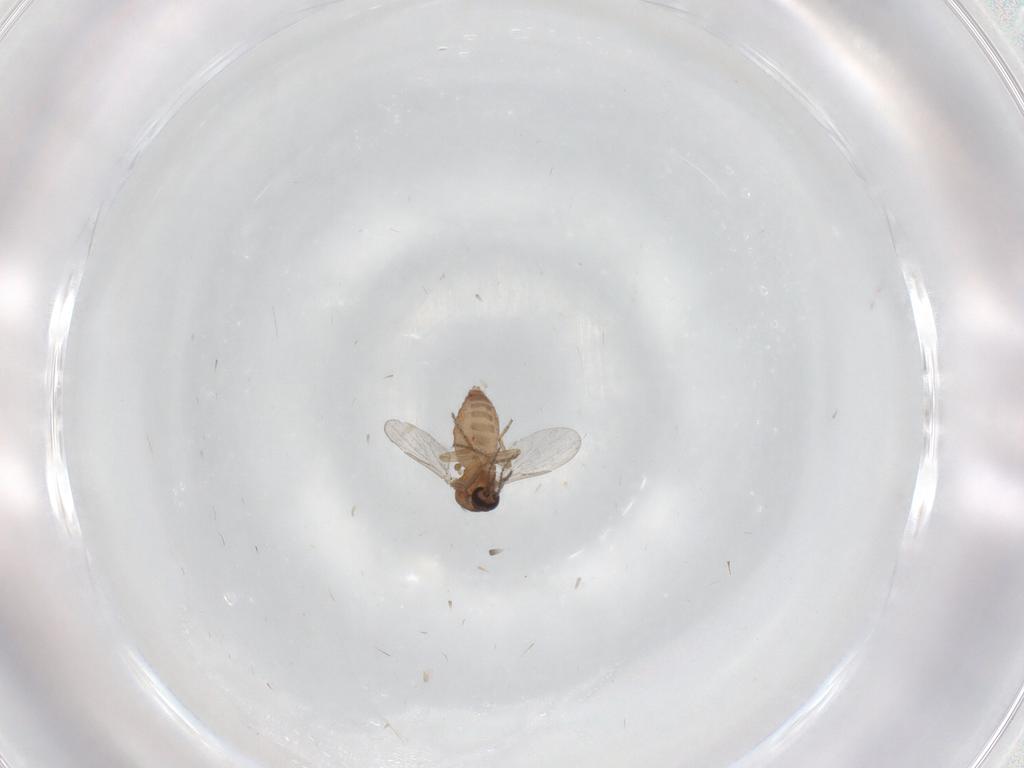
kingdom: Animalia
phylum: Arthropoda
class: Insecta
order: Diptera
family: Ceratopogonidae
